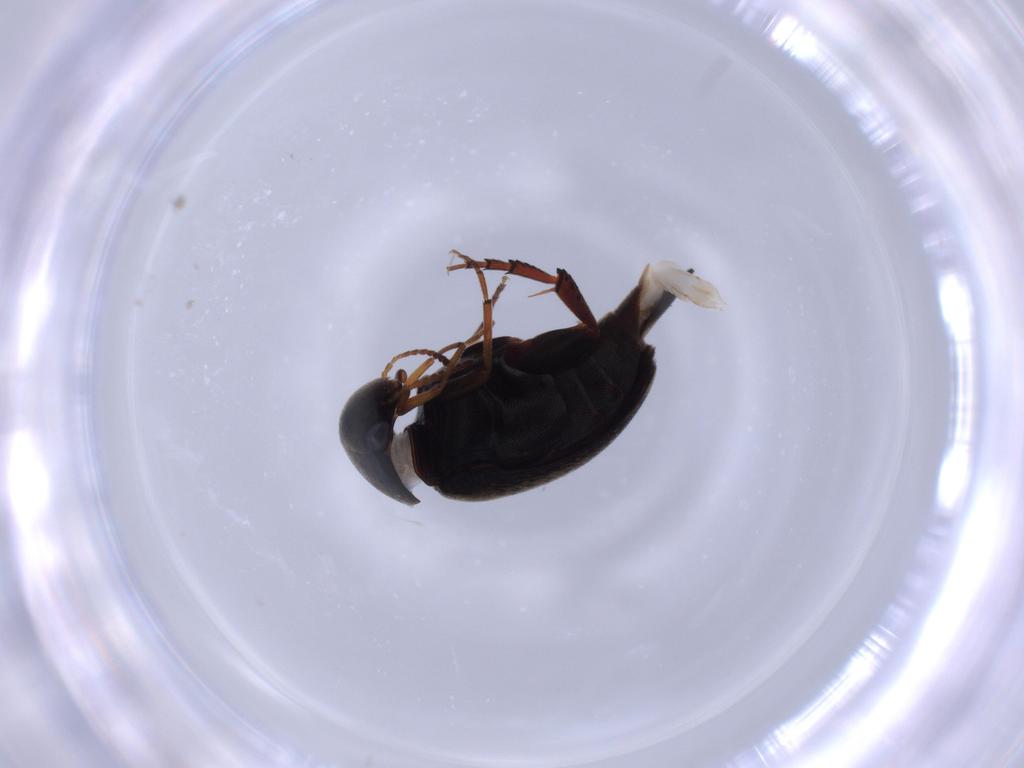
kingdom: Animalia
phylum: Arthropoda
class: Insecta
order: Coleoptera
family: Mordellidae
